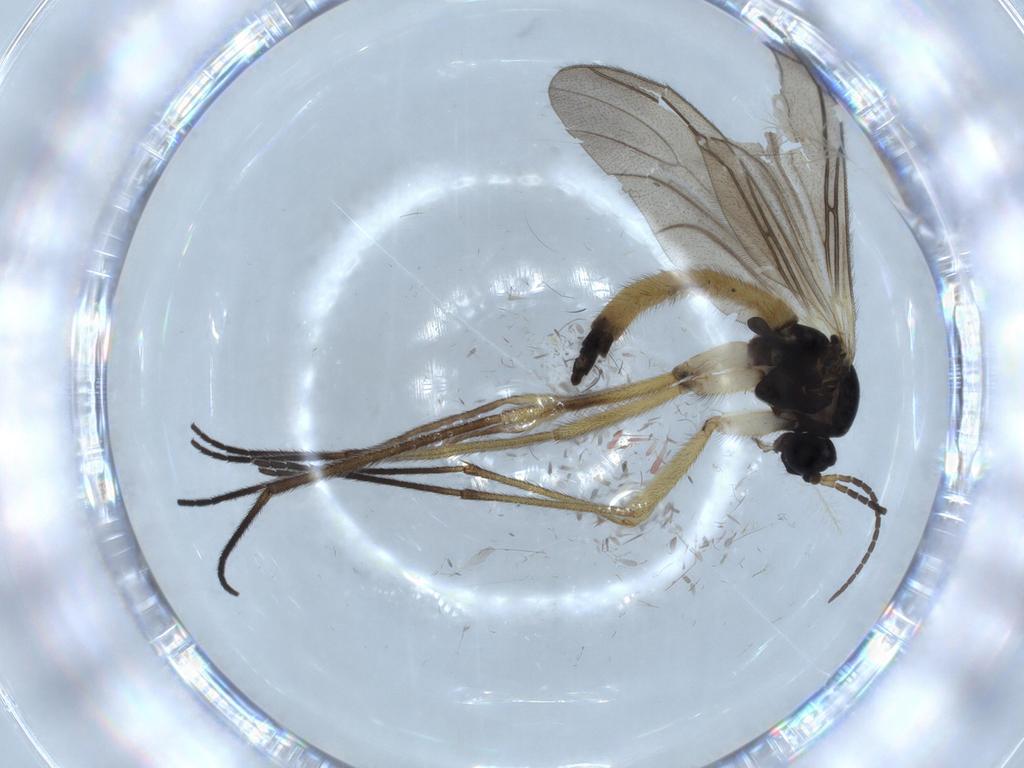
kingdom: Animalia
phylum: Arthropoda
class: Insecta
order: Diptera
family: Sciaridae
